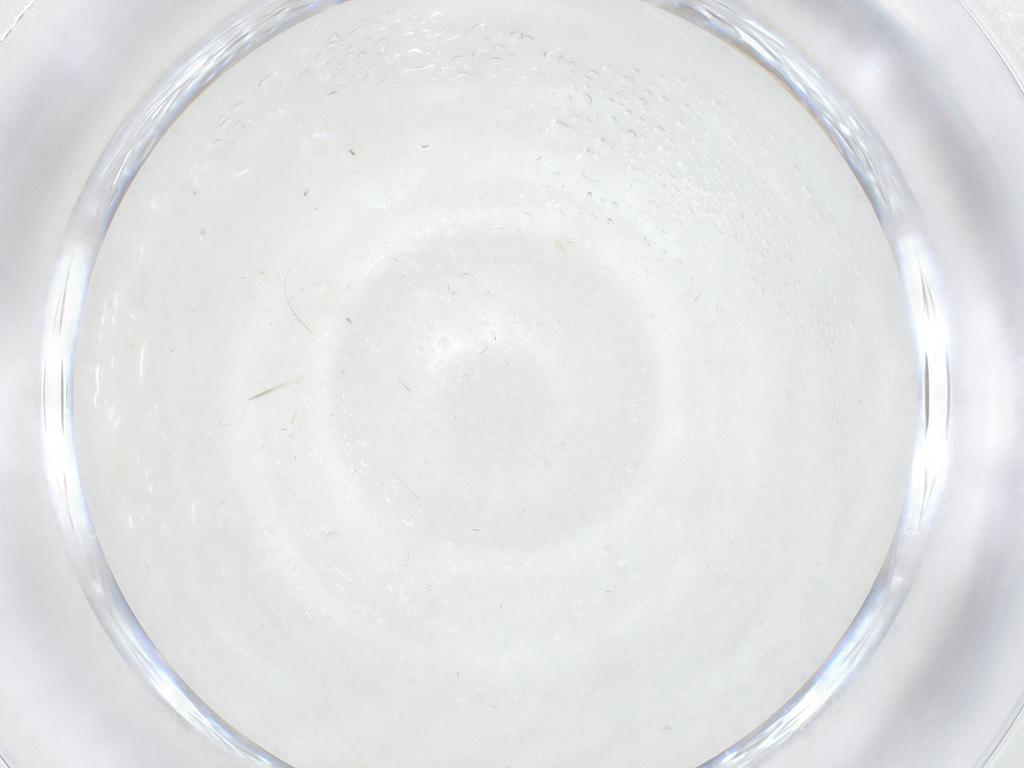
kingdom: Animalia
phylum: Arthropoda
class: Insecta
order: Lepidoptera
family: Geometridae
